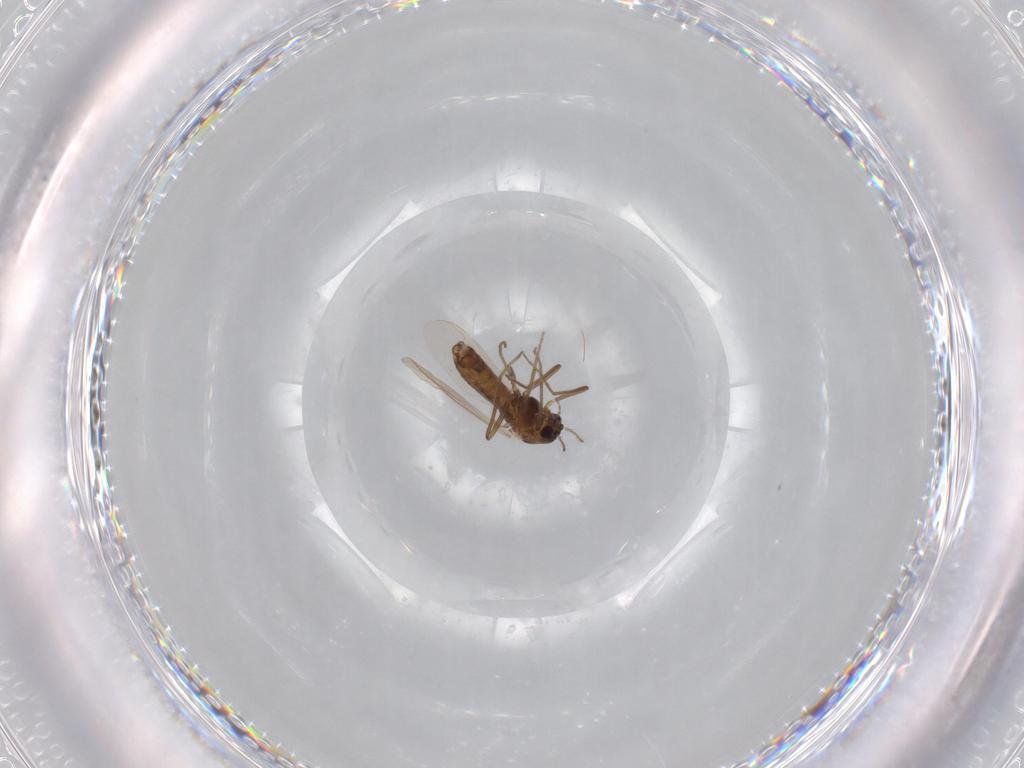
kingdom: Animalia
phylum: Arthropoda
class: Insecta
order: Diptera
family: Chironomidae
